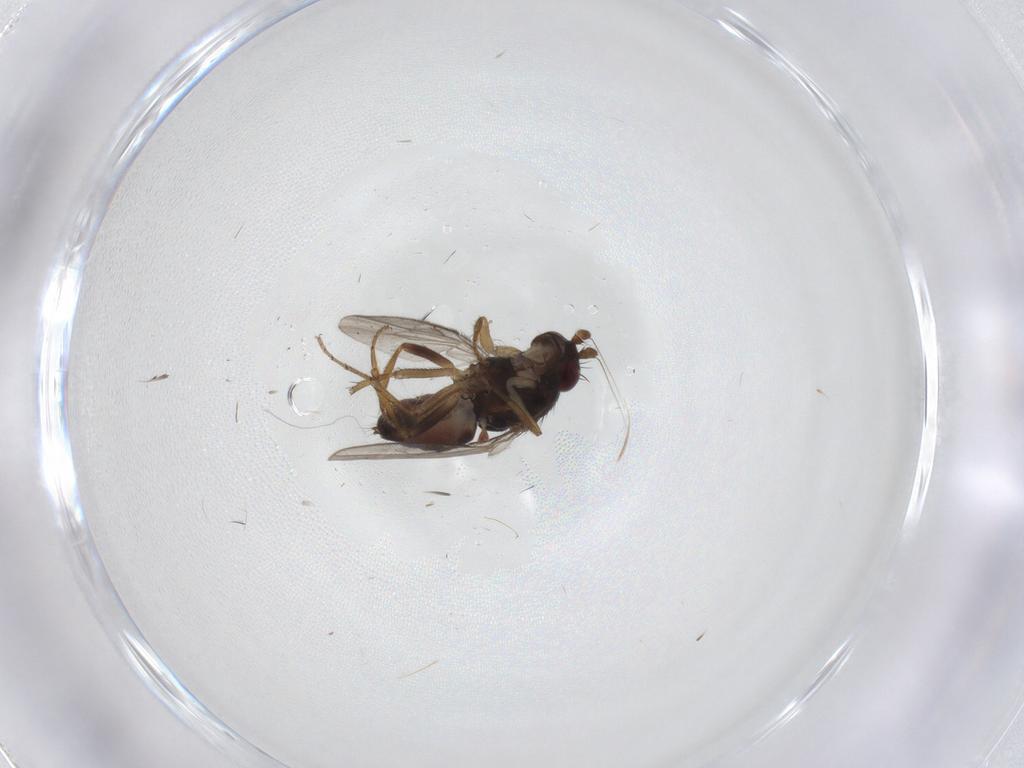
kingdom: Animalia
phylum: Arthropoda
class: Insecta
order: Diptera
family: Sphaeroceridae
